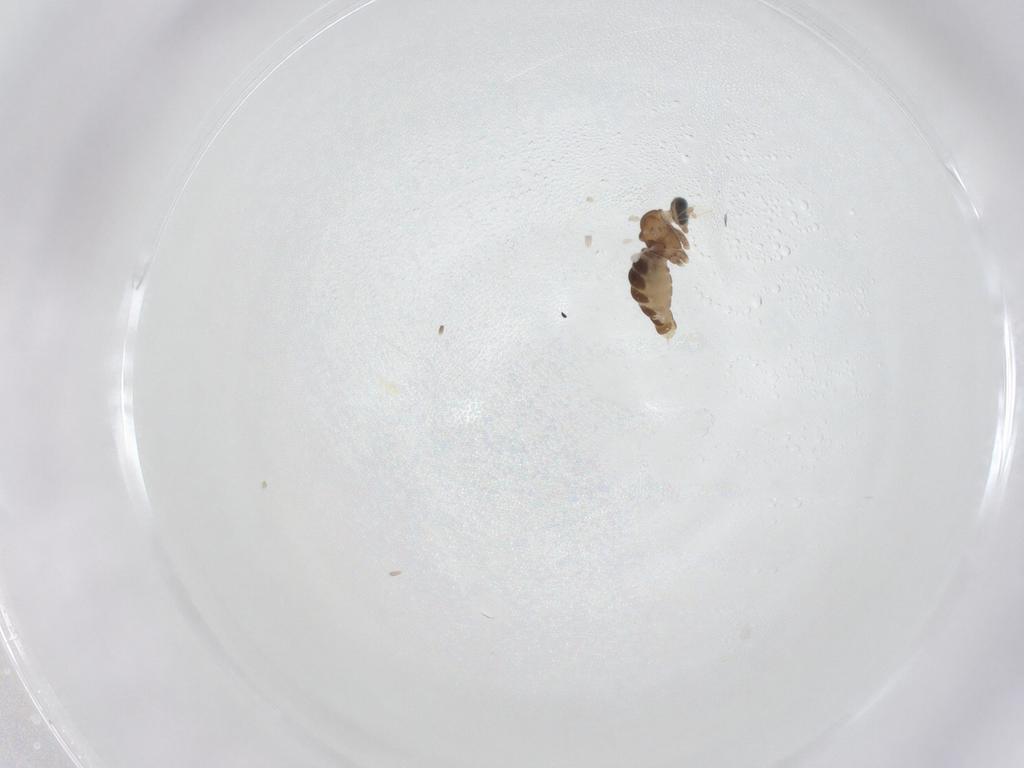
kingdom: Animalia
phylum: Arthropoda
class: Insecta
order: Diptera
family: Cecidomyiidae
